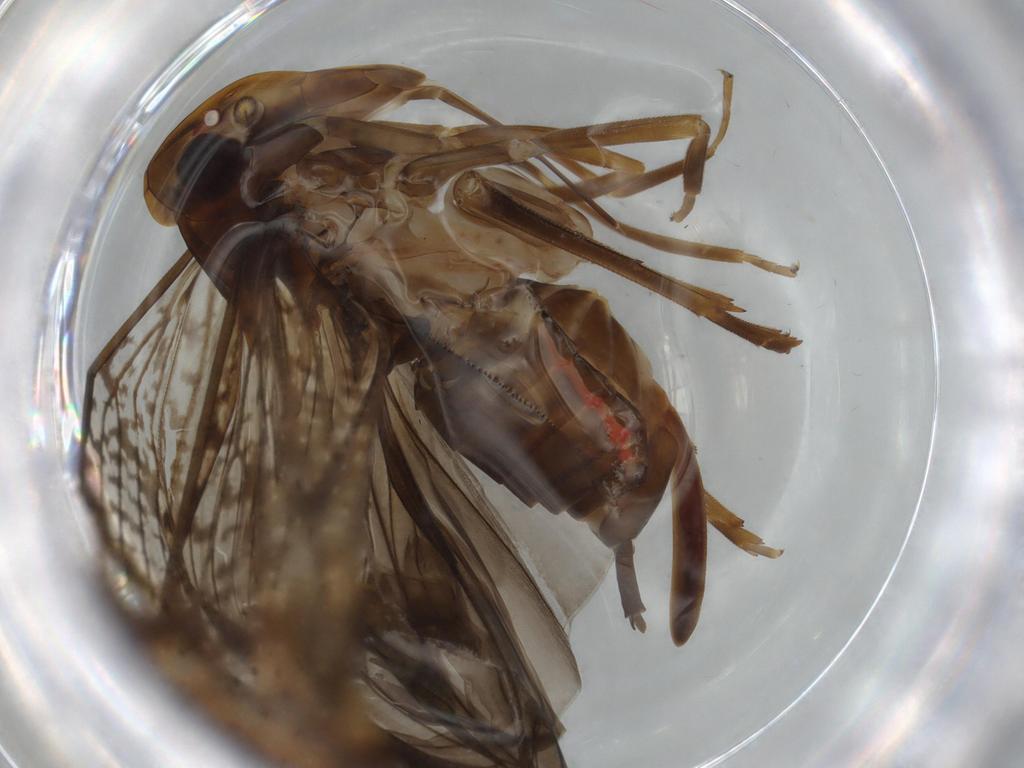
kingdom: Animalia
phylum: Arthropoda
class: Insecta
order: Hemiptera
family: Cixiidae
